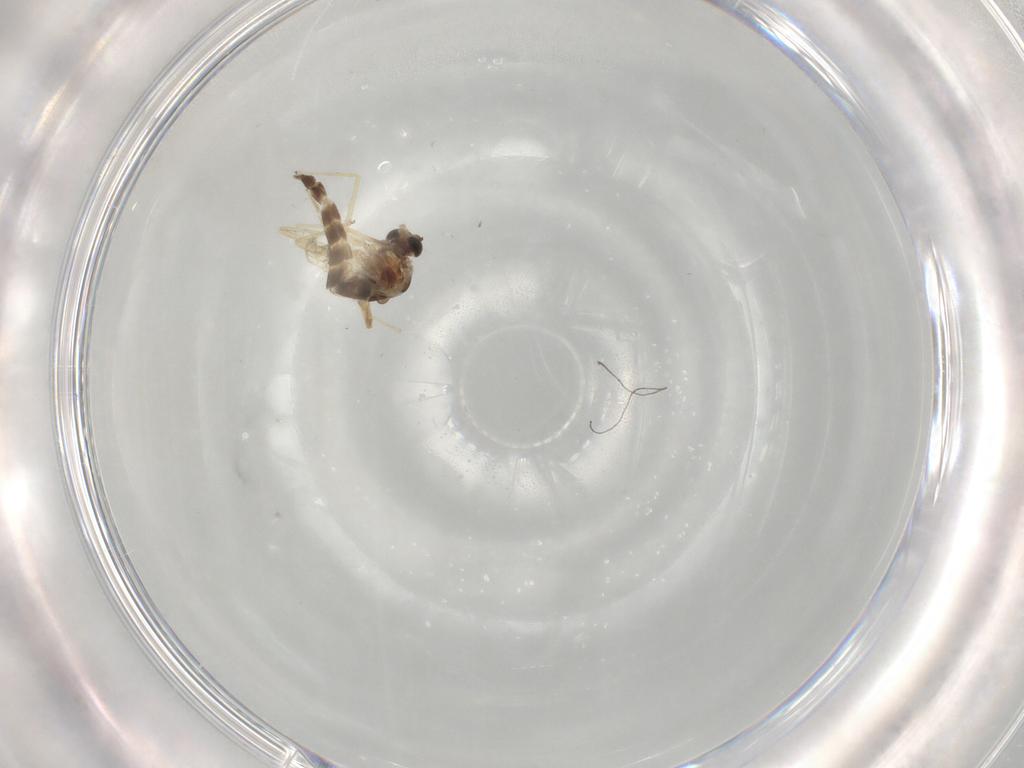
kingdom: Animalia
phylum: Arthropoda
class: Insecta
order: Diptera
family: Chironomidae
